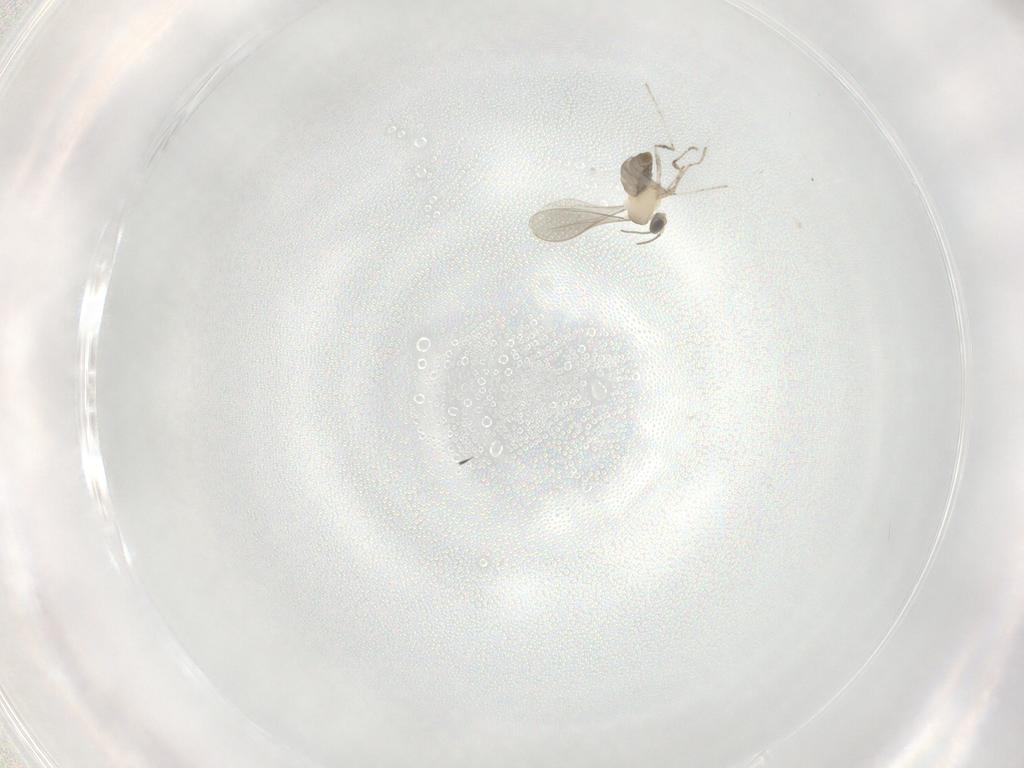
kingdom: Animalia
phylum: Arthropoda
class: Insecta
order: Diptera
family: Cecidomyiidae
